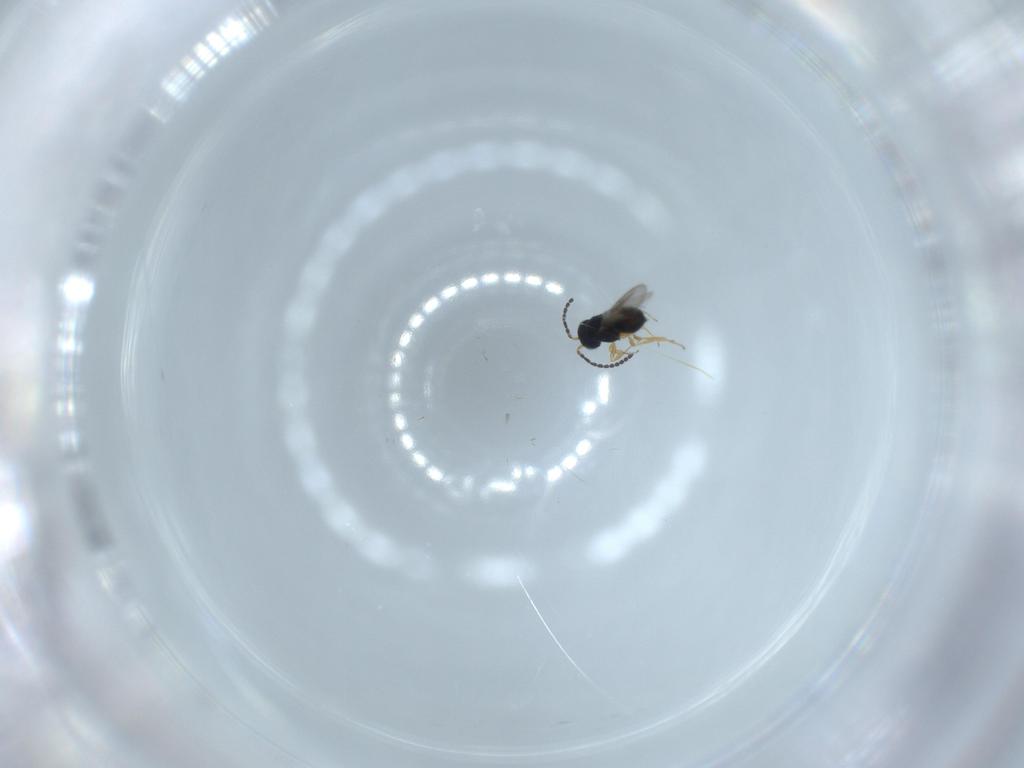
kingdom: Animalia
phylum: Arthropoda
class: Insecta
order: Hymenoptera
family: Scelionidae
